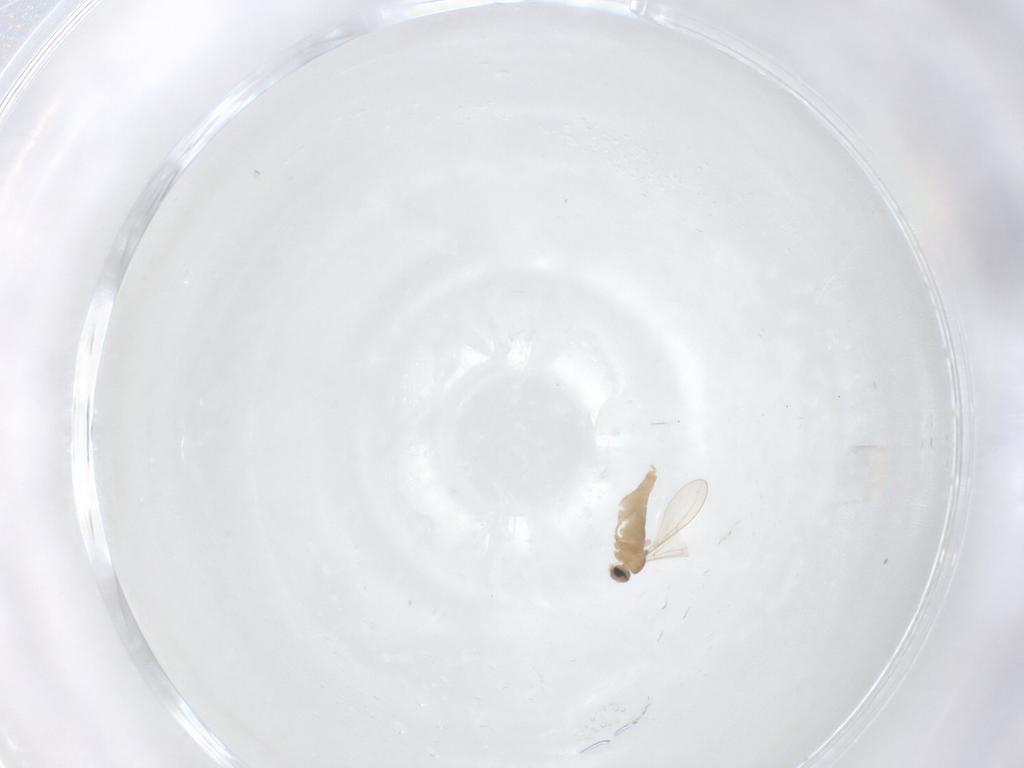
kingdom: Animalia
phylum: Arthropoda
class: Insecta
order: Diptera
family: Cecidomyiidae
